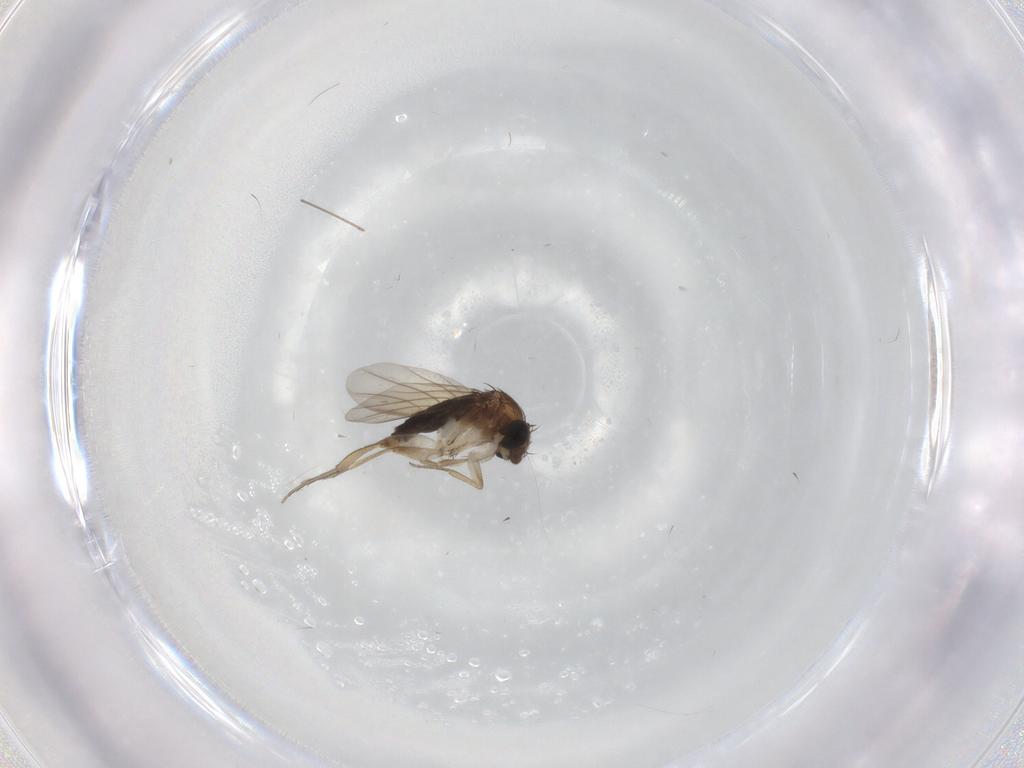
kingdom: Animalia
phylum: Arthropoda
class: Insecta
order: Diptera
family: Phoridae
